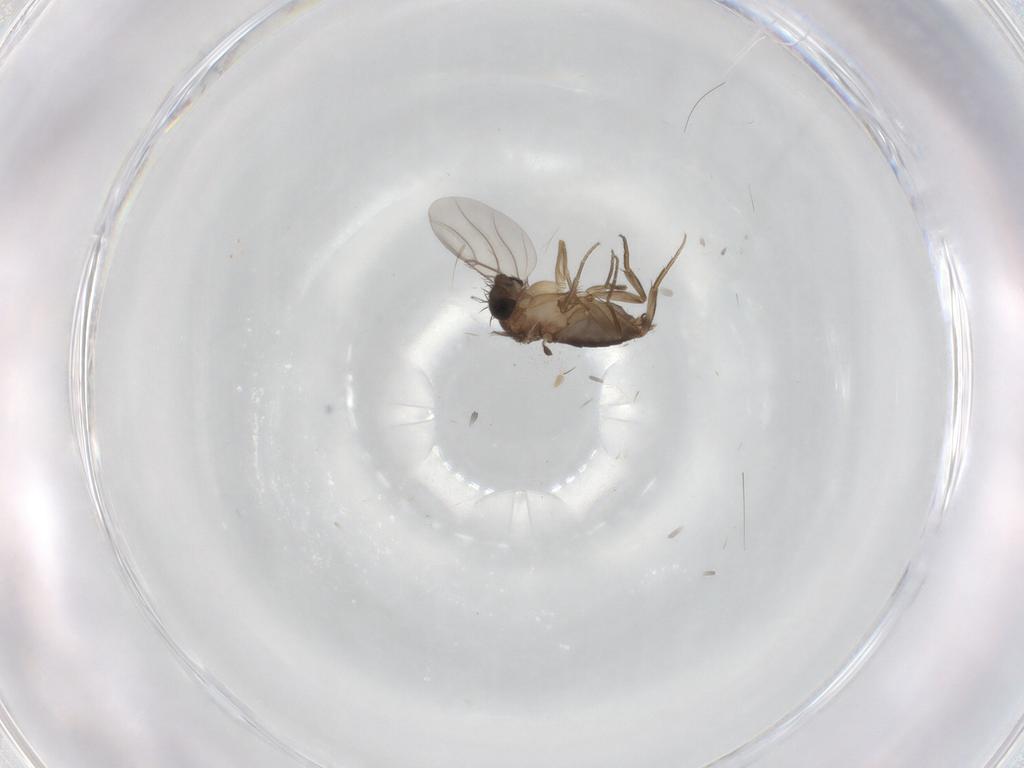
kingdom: Animalia
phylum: Arthropoda
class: Insecta
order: Diptera
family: Phoridae
